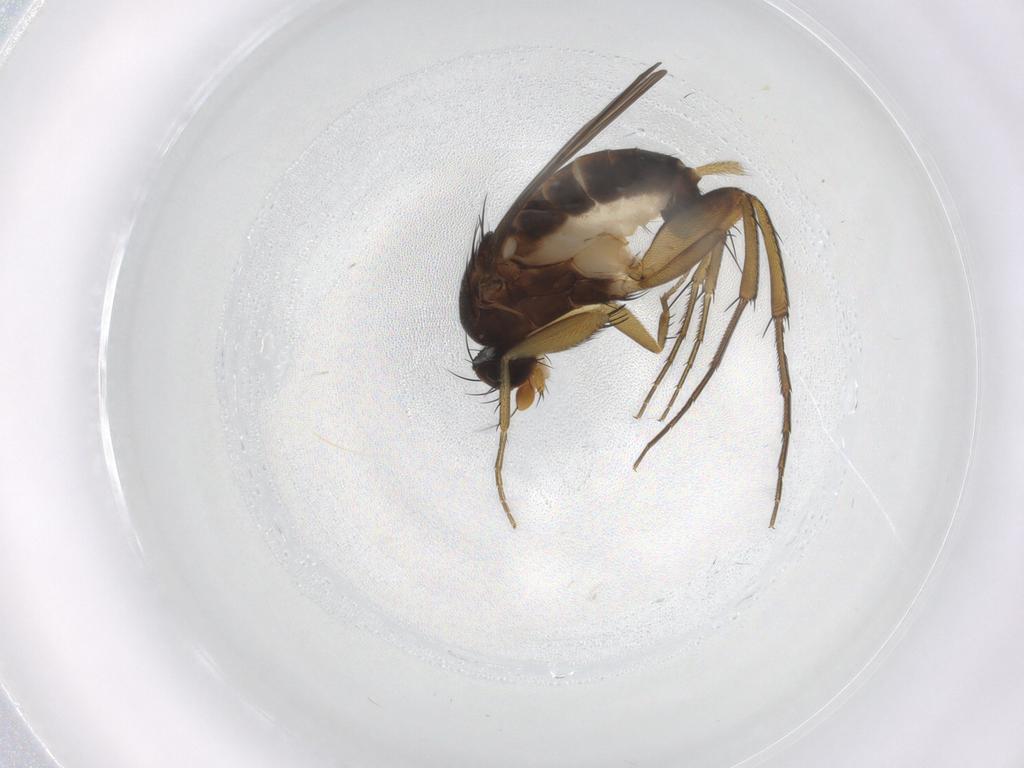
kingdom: Animalia
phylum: Arthropoda
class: Insecta
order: Diptera
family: Phoridae
